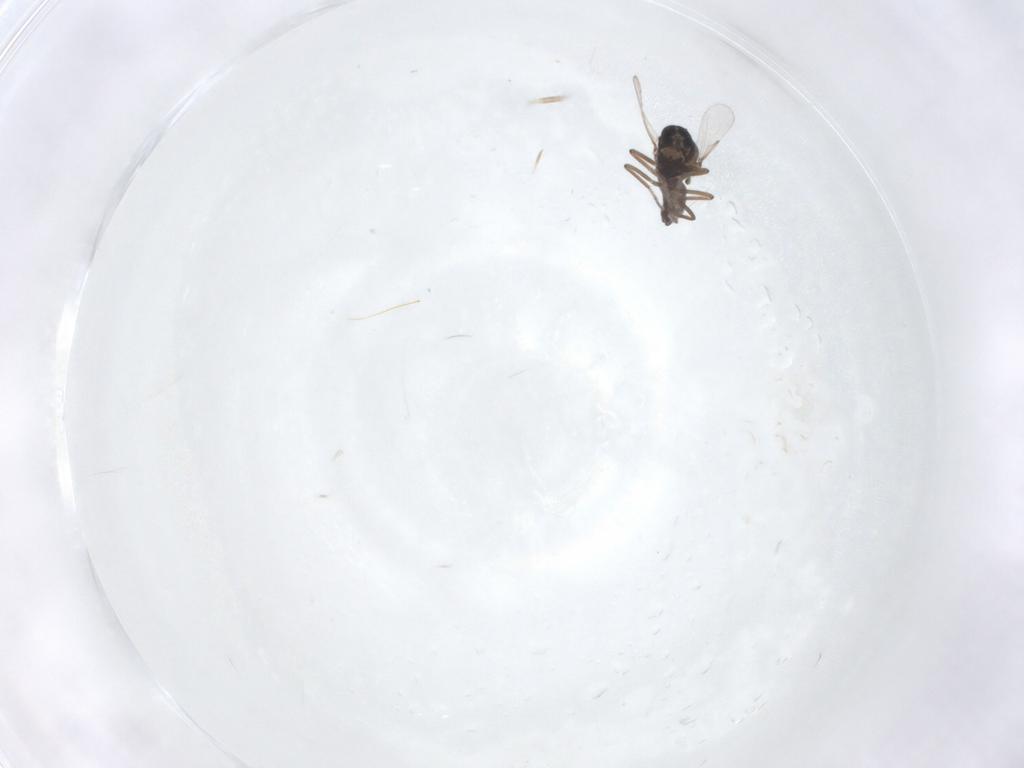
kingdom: Animalia
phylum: Arthropoda
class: Insecta
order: Diptera
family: Ceratopogonidae
